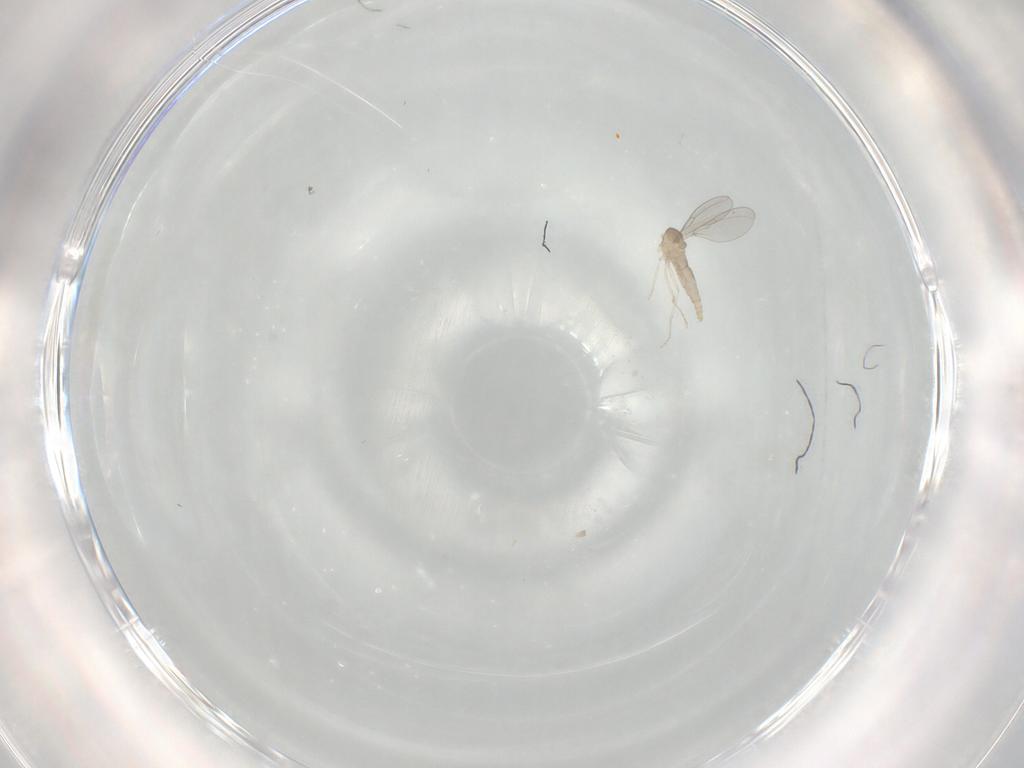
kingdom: Animalia
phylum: Arthropoda
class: Insecta
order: Diptera
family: Cecidomyiidae
